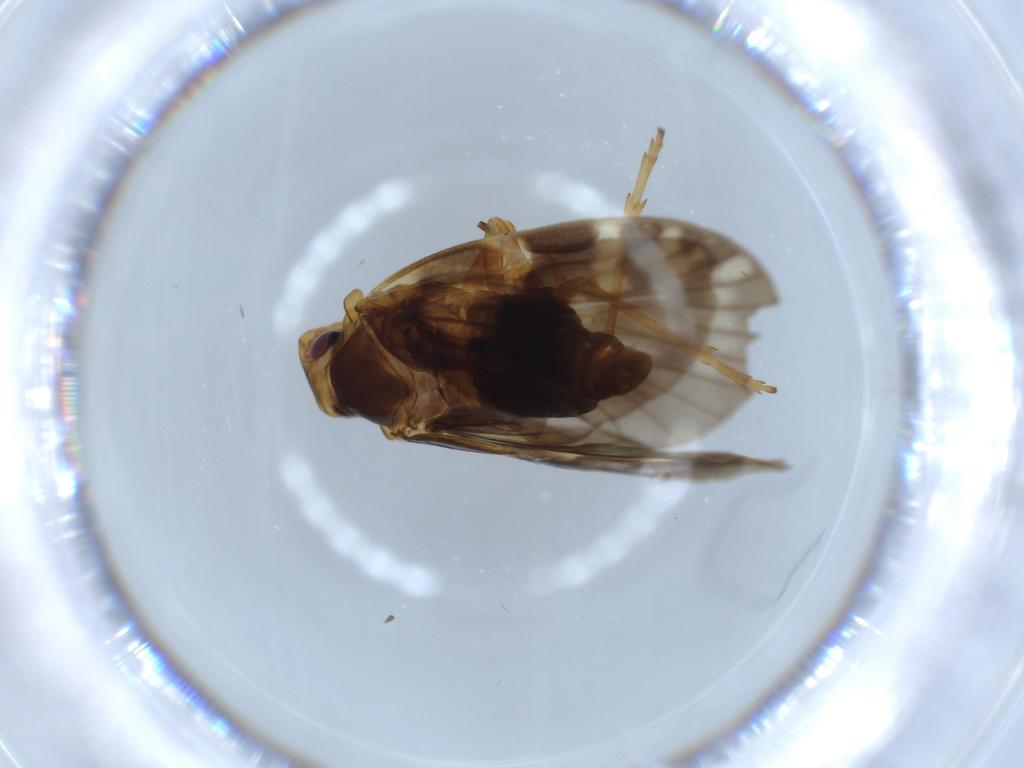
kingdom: Animalia
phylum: Arthropoda
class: Insecta
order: Hemiptera
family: Cixiidae
